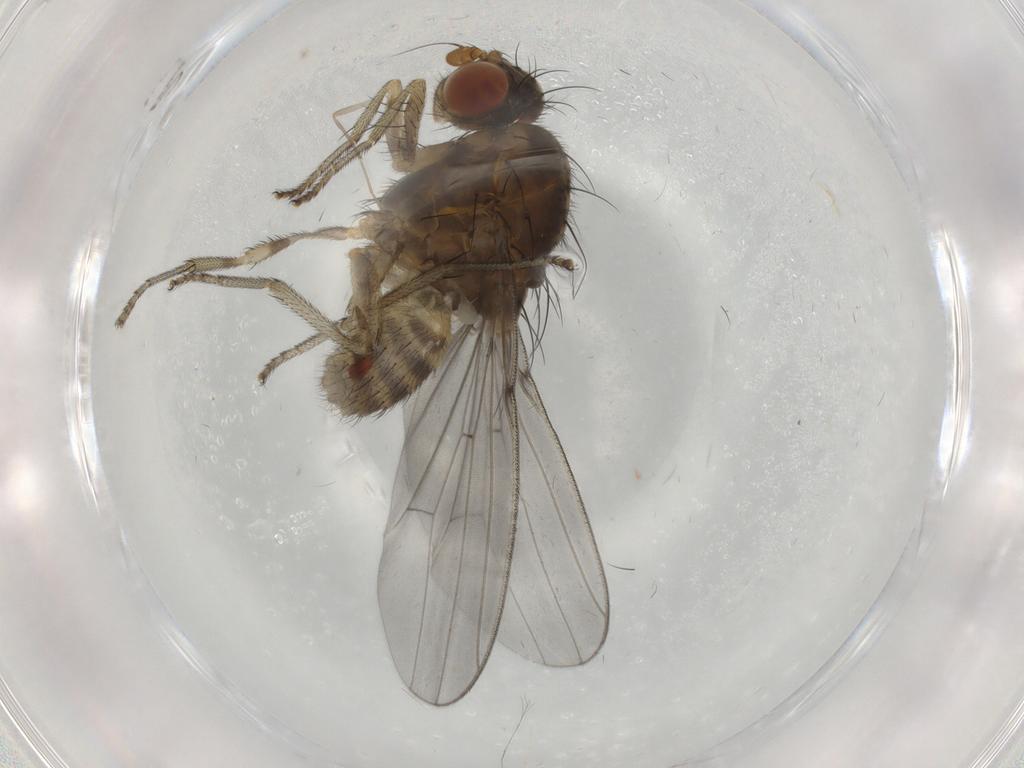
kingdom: Animalia
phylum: Arthropoda
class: Insecta
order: Diptera
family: Lauxaniidae
